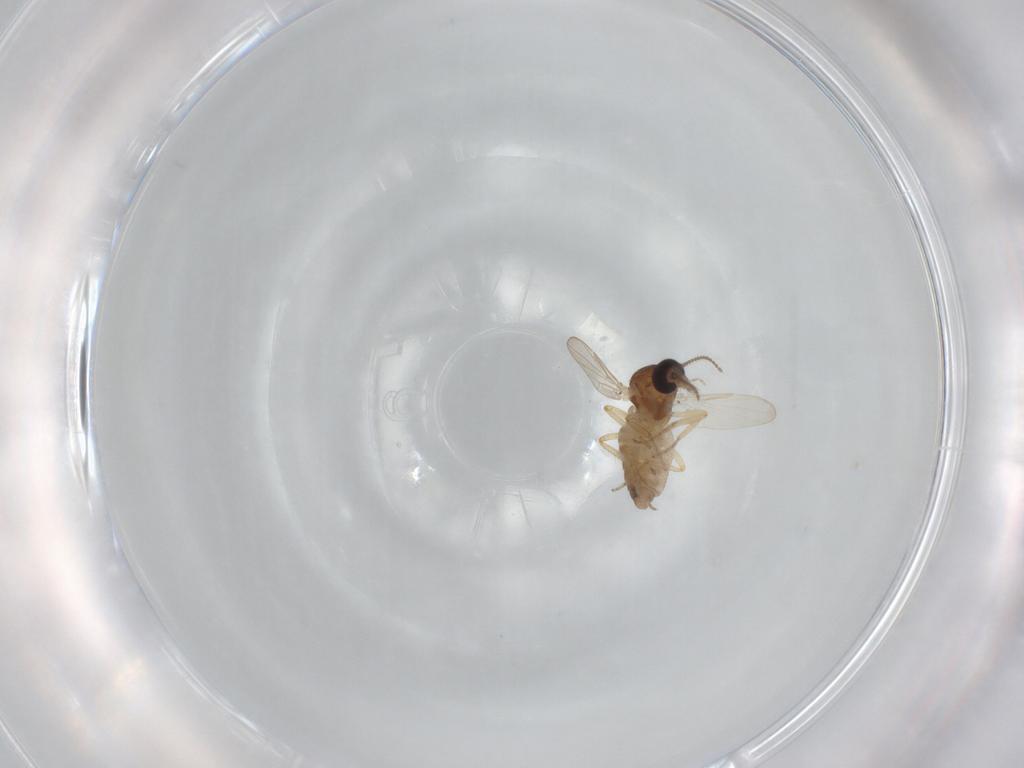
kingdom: Animalia
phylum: Arthropoda
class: Insecta
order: Diptera
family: Ceratopogonidae
